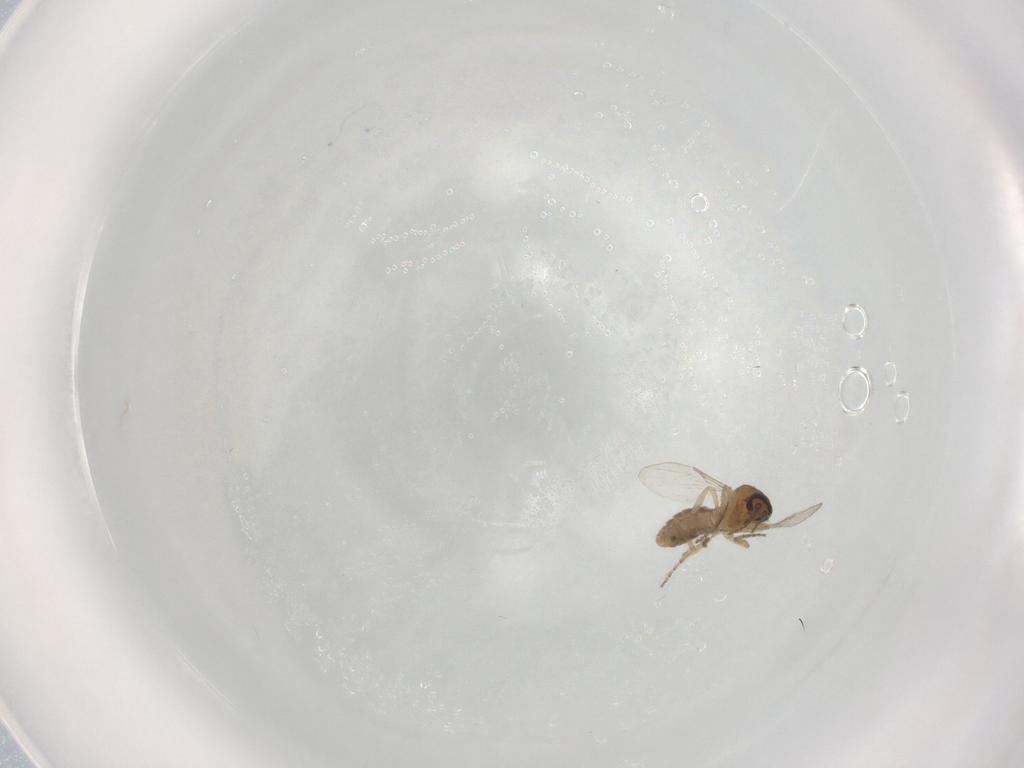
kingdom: Animalia
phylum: Arthropoda
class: Insecta
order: Diptera
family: Ceratopogonidae
